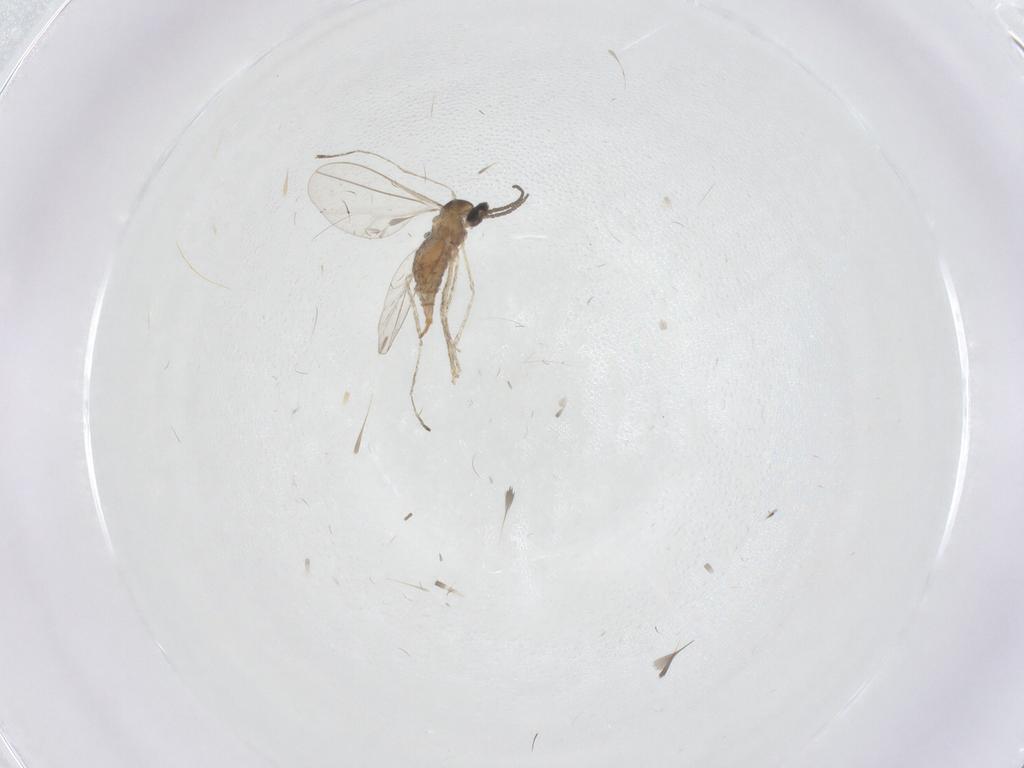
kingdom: Animalia
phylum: Arthropoda
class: Insecta
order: Diptera
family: Cecidomyiidae
